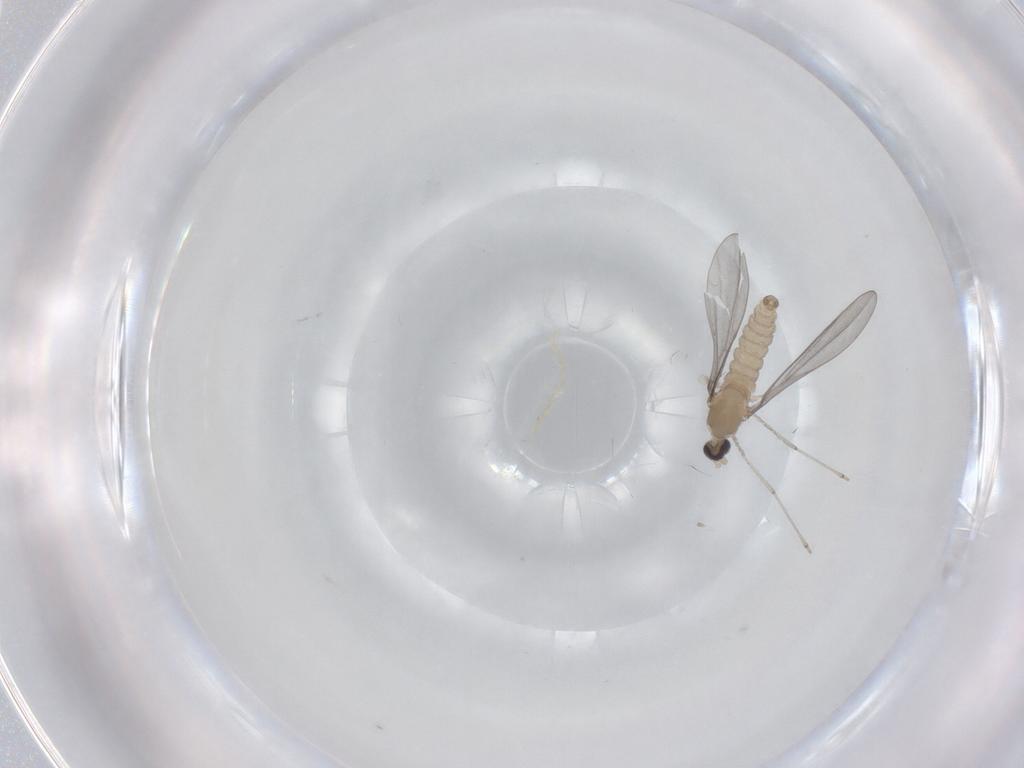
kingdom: Animalia
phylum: Arthropoda
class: Insecta
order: Diptera
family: Cecidomyiidae
